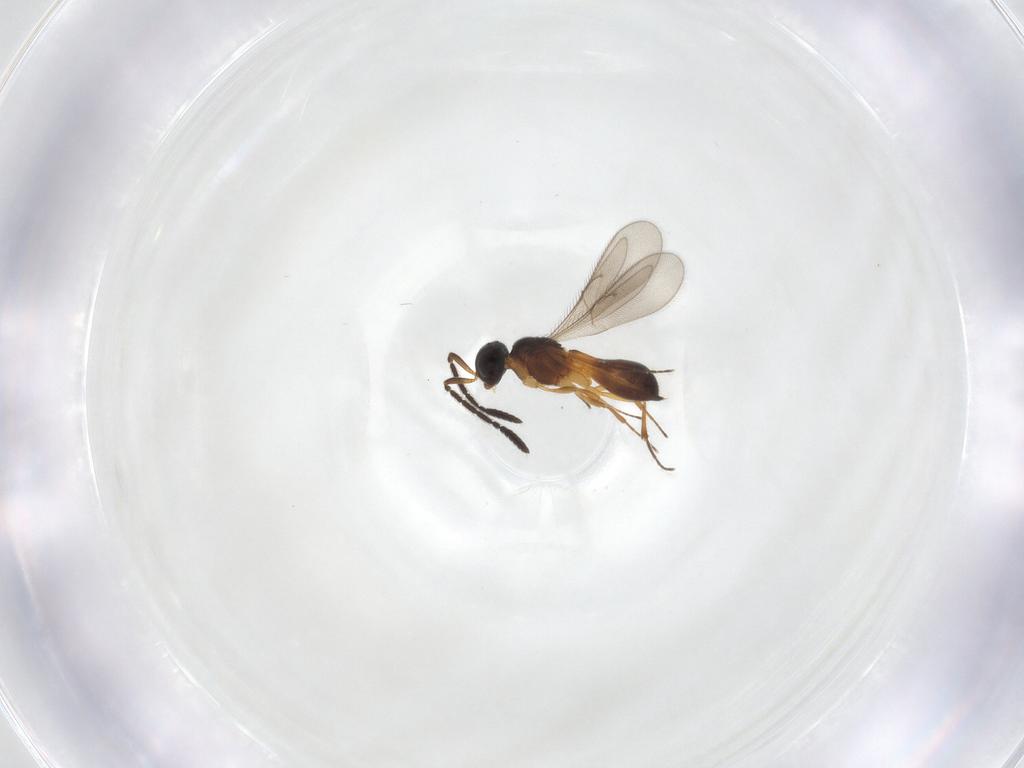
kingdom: Animalia
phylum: Arthropoda
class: Insecta
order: Hymenoptera
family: Scelionidae
